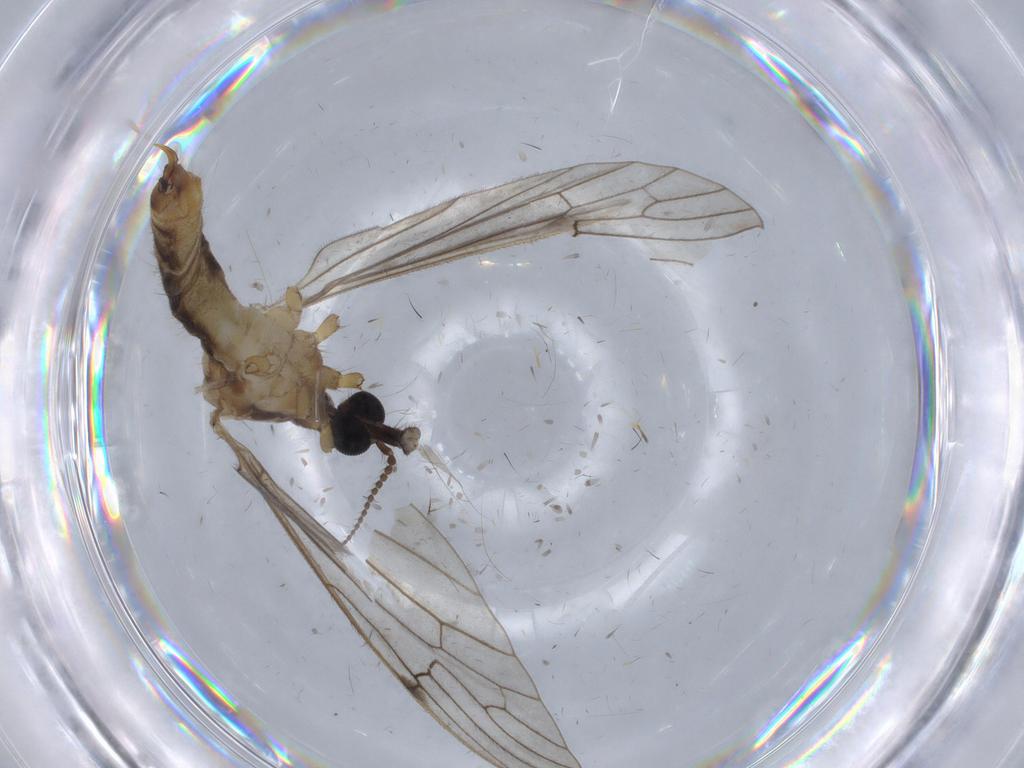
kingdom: Animalia
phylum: Arthropoda
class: Insecta
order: Diptera
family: Limoniidae
